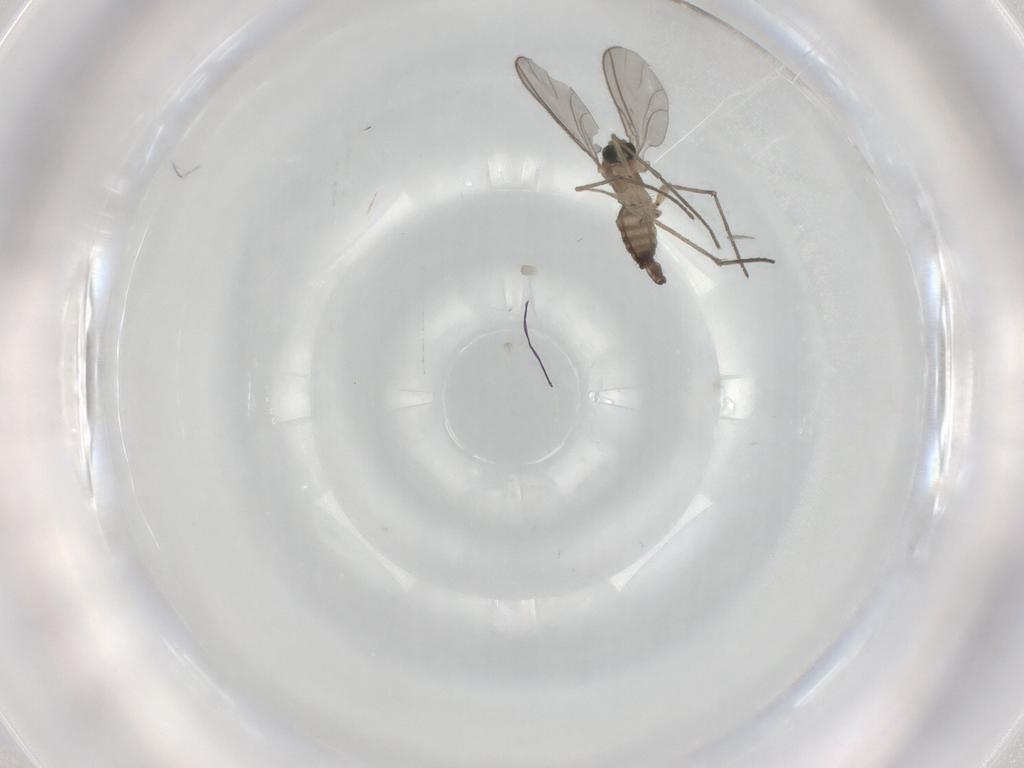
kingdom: Animalia
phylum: Arthropoda
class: Insecta
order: Diptera
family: Sciaridae
